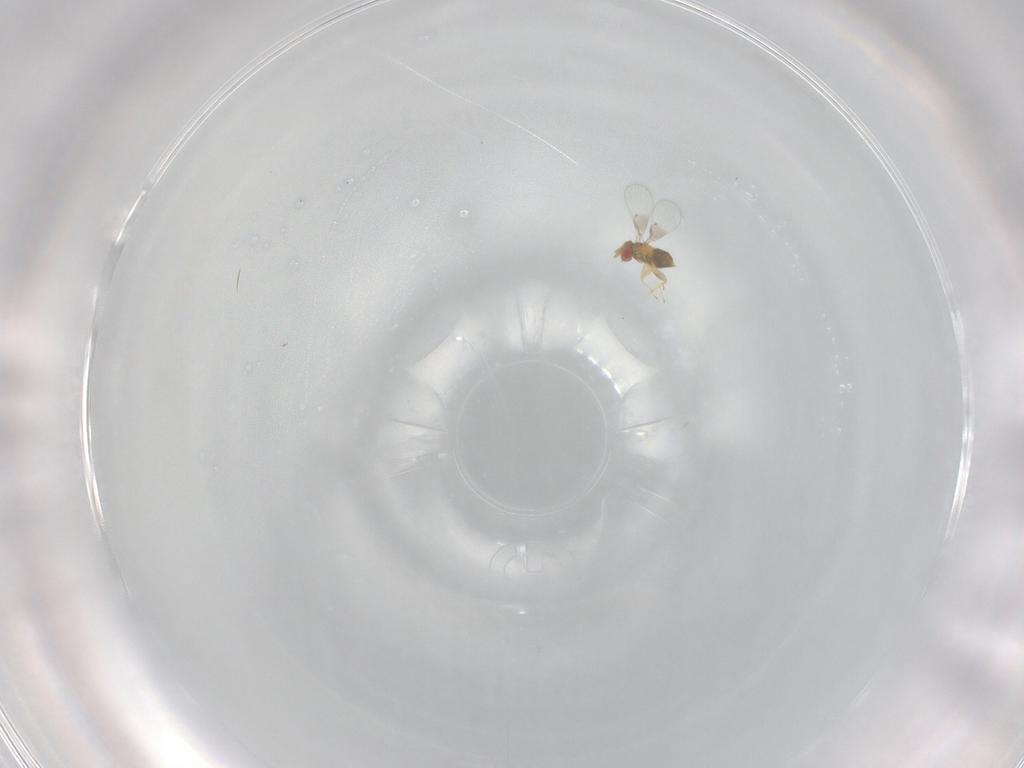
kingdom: Animalia
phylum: Arthropoda
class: Insecta
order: Hymenoptera
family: Trichogrammatidae
